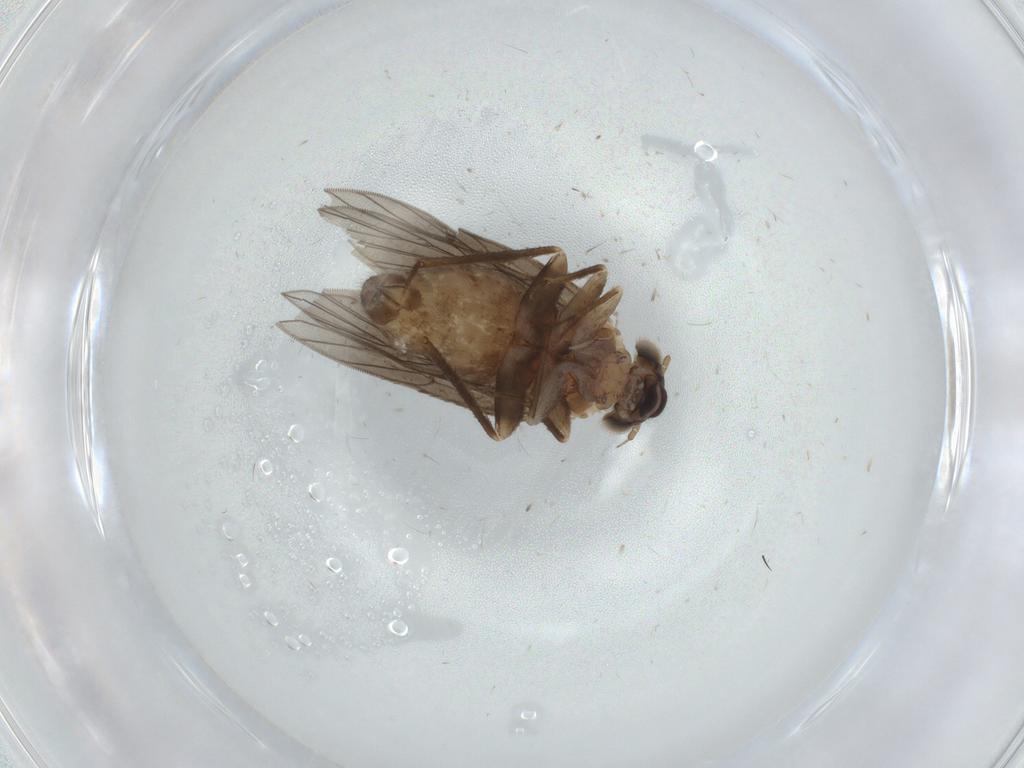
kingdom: Animalia
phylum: Arthropoda
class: Insecta
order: Psocodea
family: Lepidopsocidae
